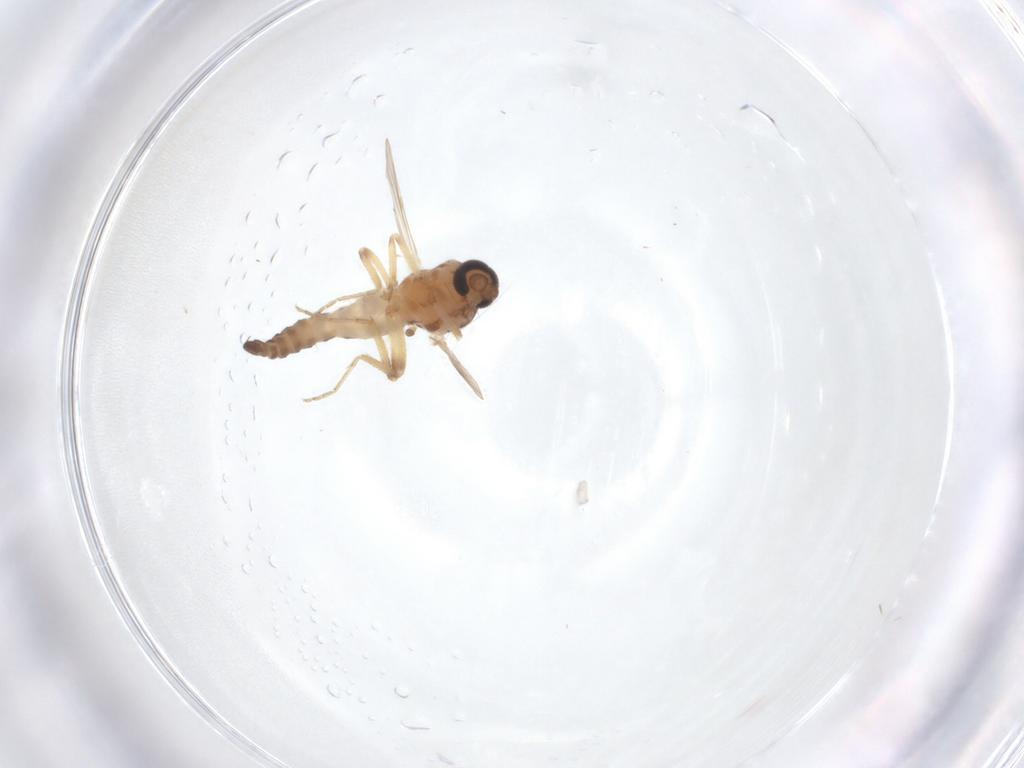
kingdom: Animalia
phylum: Arthropoda
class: Insecta
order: Diptera
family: Ceratopogonidae
